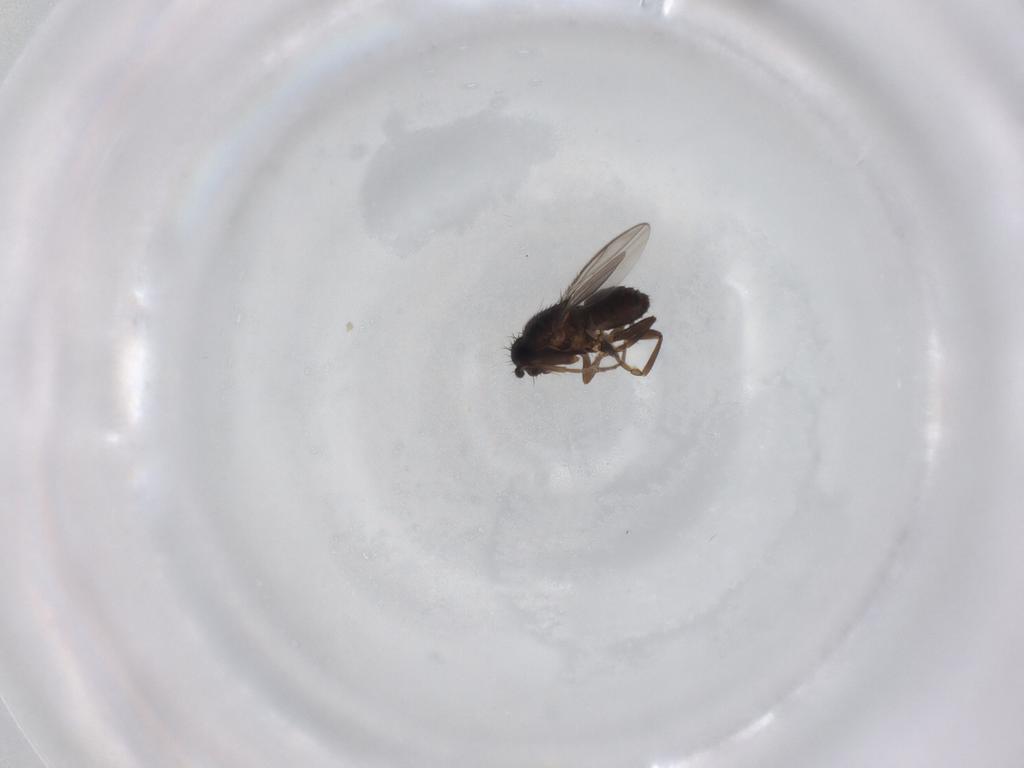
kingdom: Animalia
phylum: Arthropoda
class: Insecta
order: Diptera
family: Sphaeroceridae
